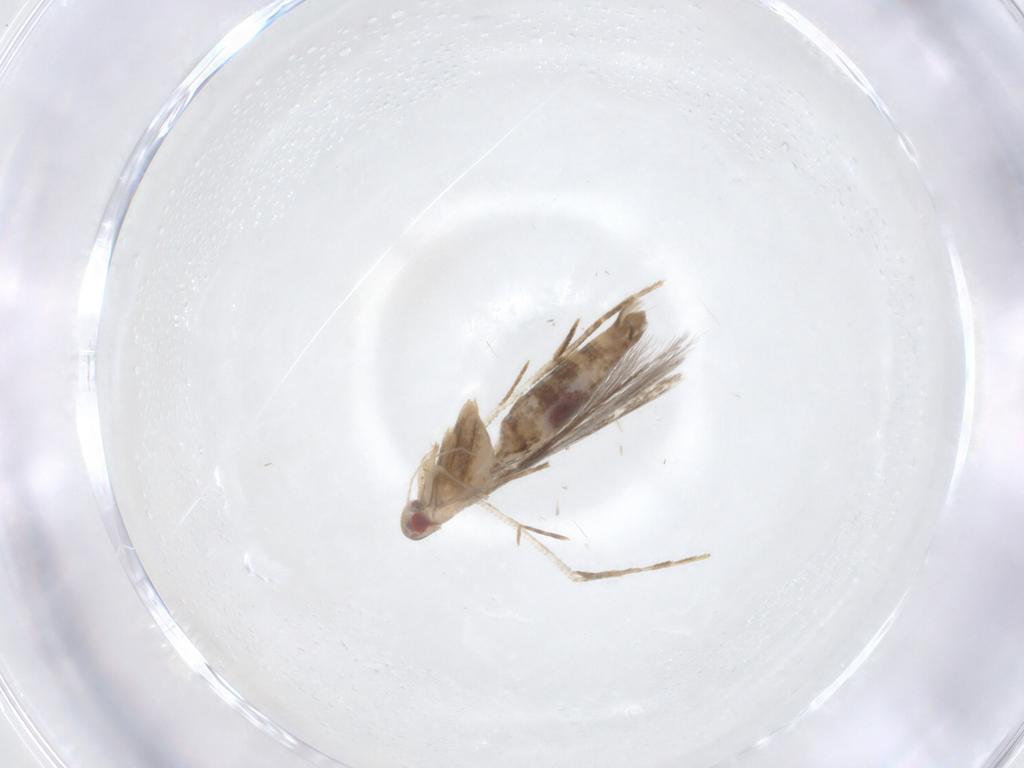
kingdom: Animalia
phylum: Arthropoda
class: Insecta
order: Lepidoptera
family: Cosmopterigidae
